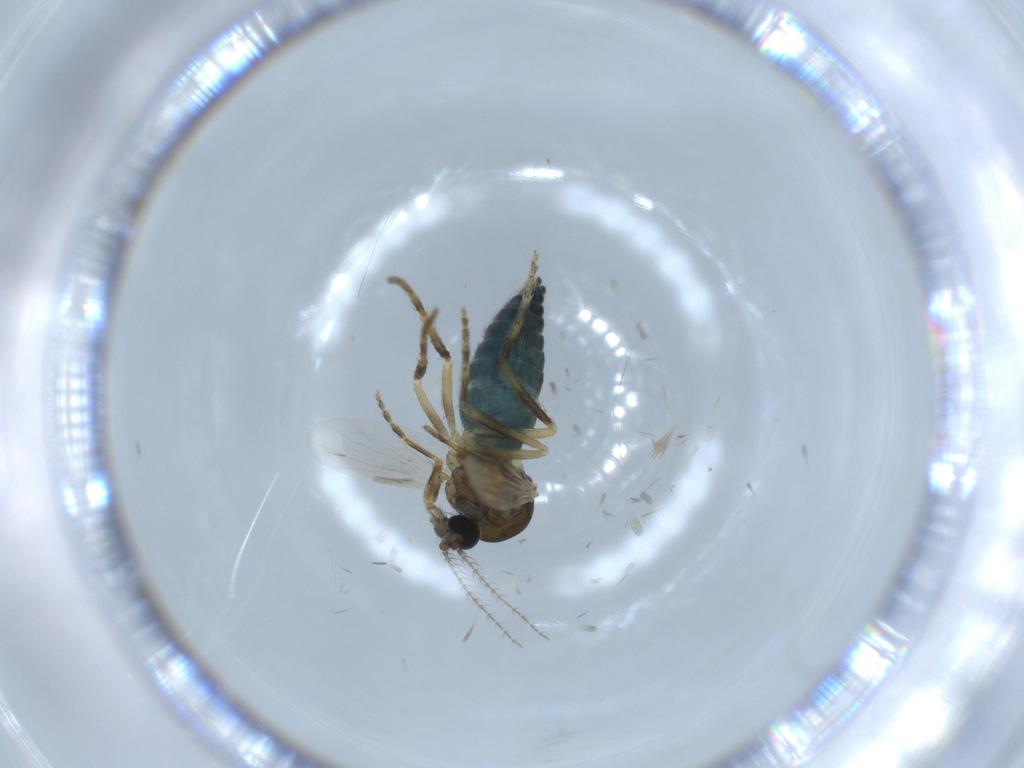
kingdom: Animalia
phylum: Arthropoda
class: Insecta
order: Diptera
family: Ceratopogonidae
